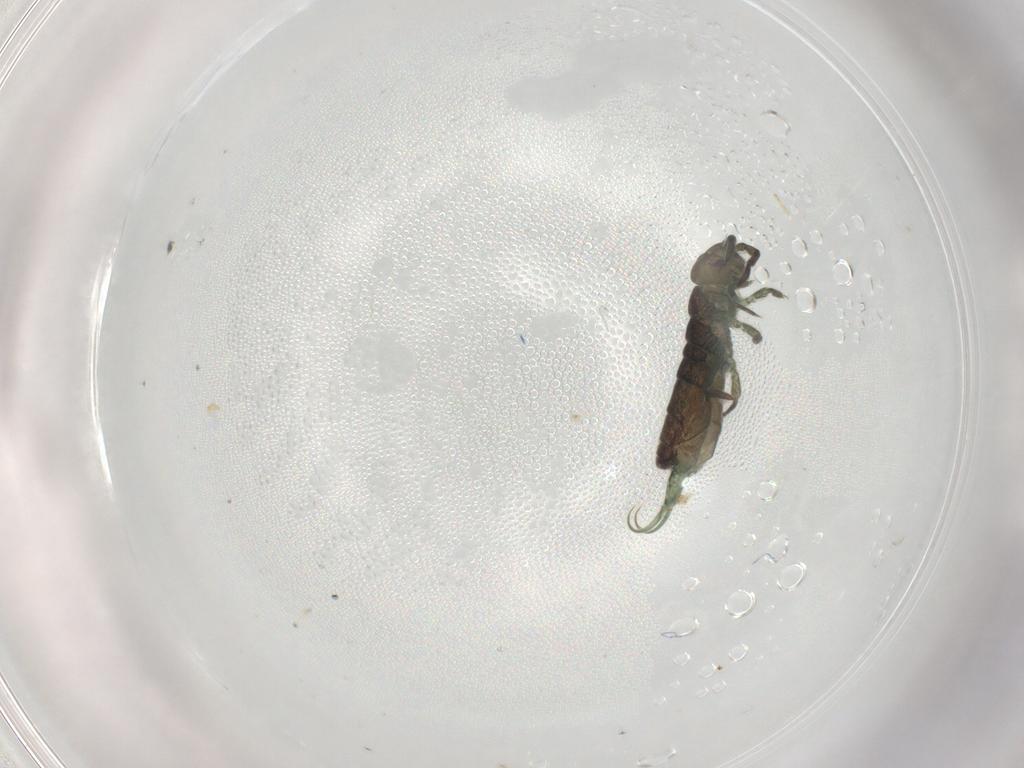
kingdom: Animalia
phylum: Arthropoda
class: Collembola
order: Entomobryomorpha
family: Isotomidae
